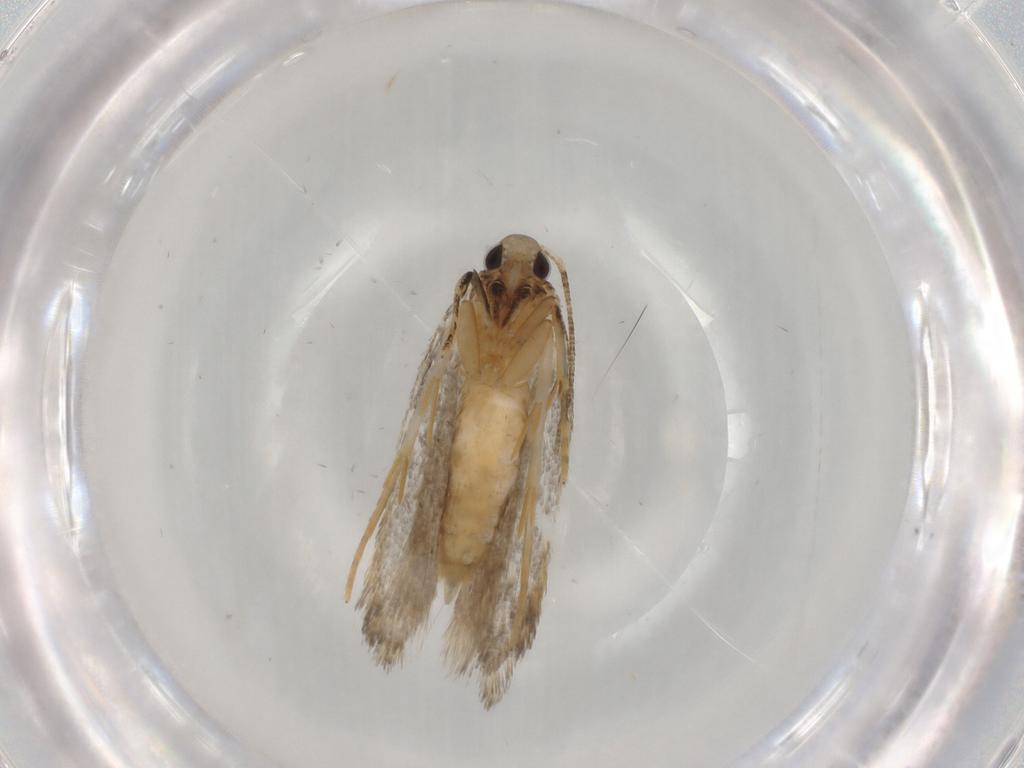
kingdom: Animalia
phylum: Arthropoda
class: Insecta
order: Lepidoptera
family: Autostichidae
